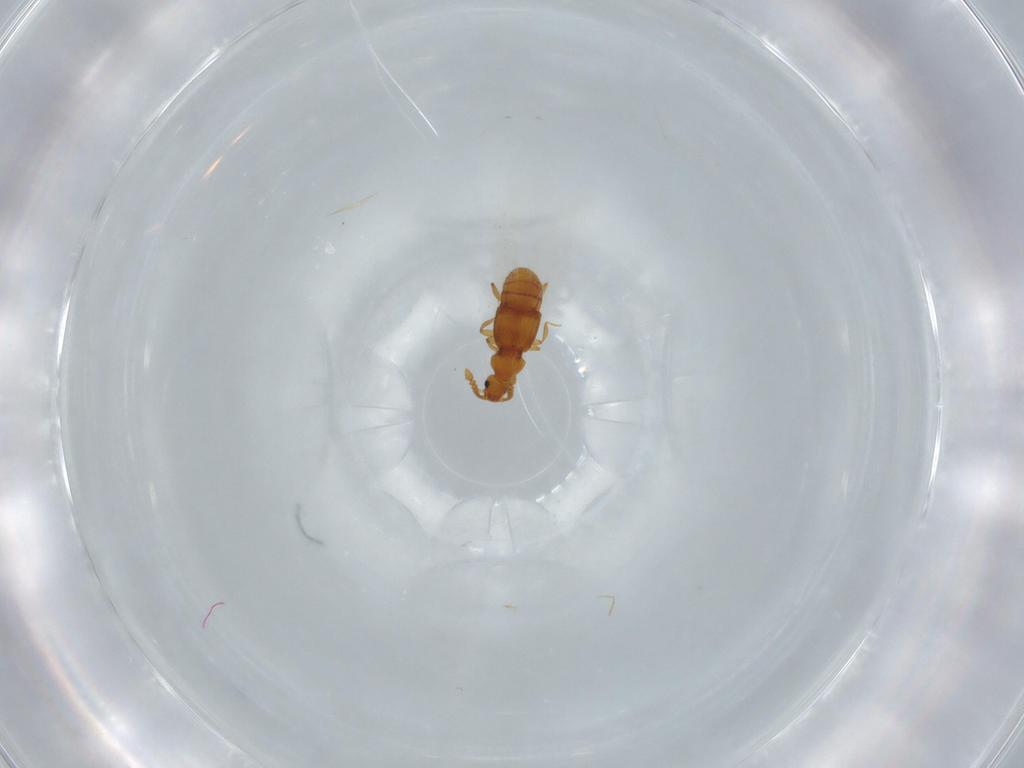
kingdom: Animalia
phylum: Arthropoda
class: Insecta
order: Coleoptera
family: Staphylinidae
